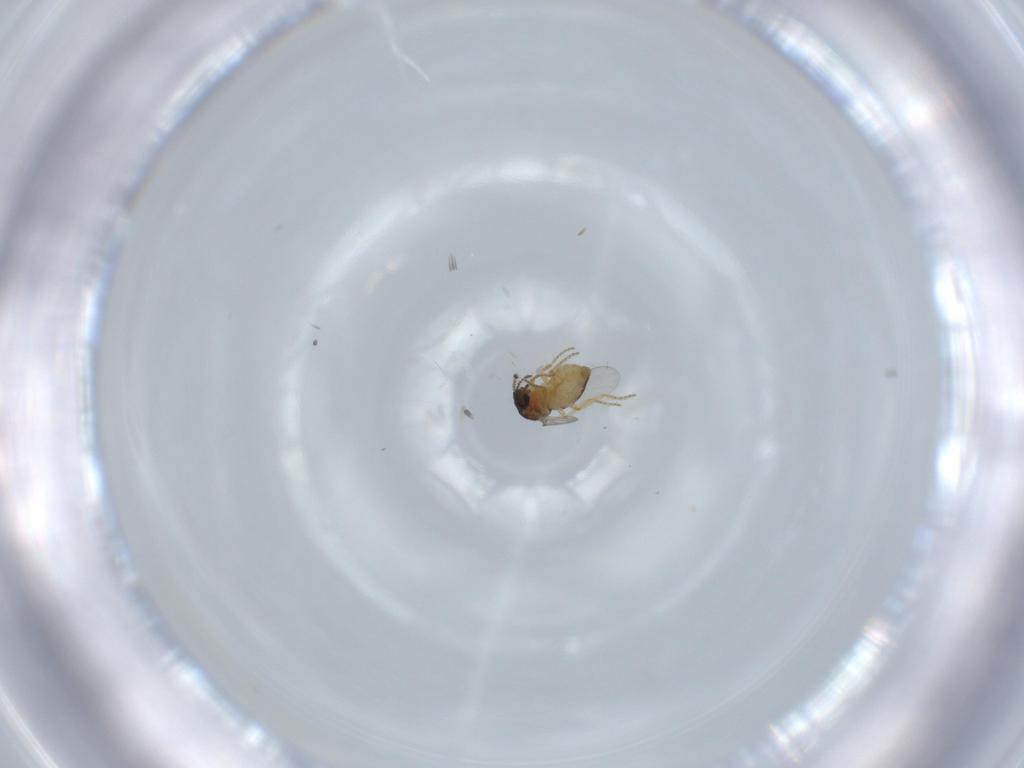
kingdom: Animalia
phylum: Arthropoda
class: Insecta
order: Diptera
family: Ceratopogonidae
